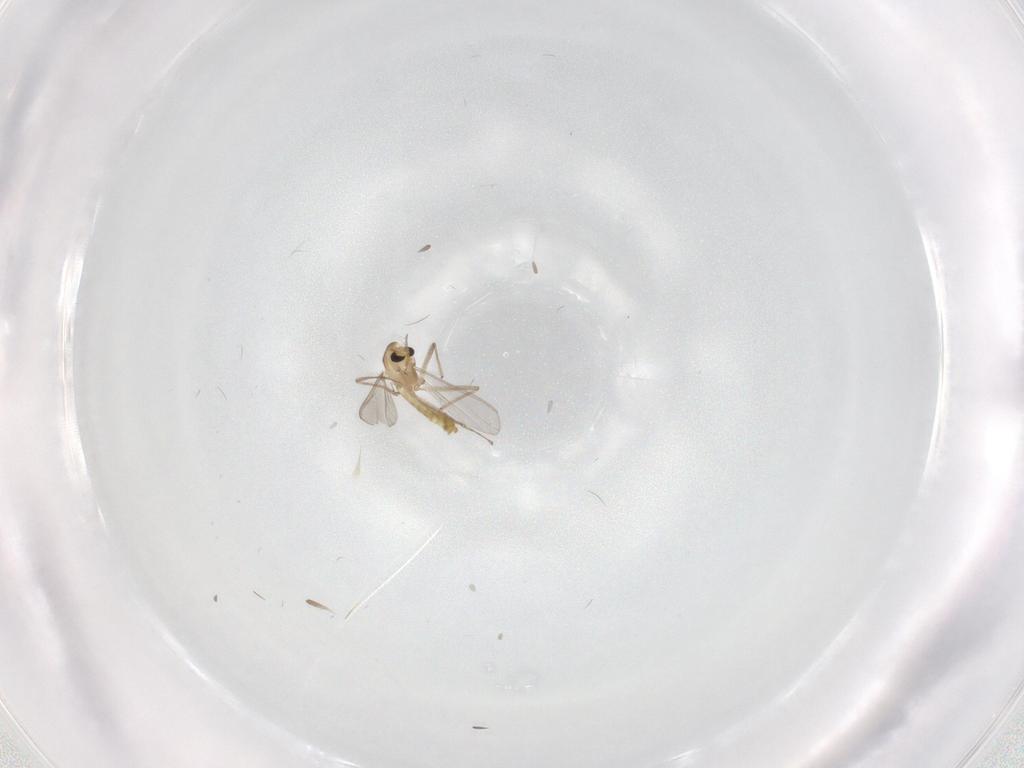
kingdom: Animalia
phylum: Arthropoda
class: Insecta
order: Diptera
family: Chironomidae
